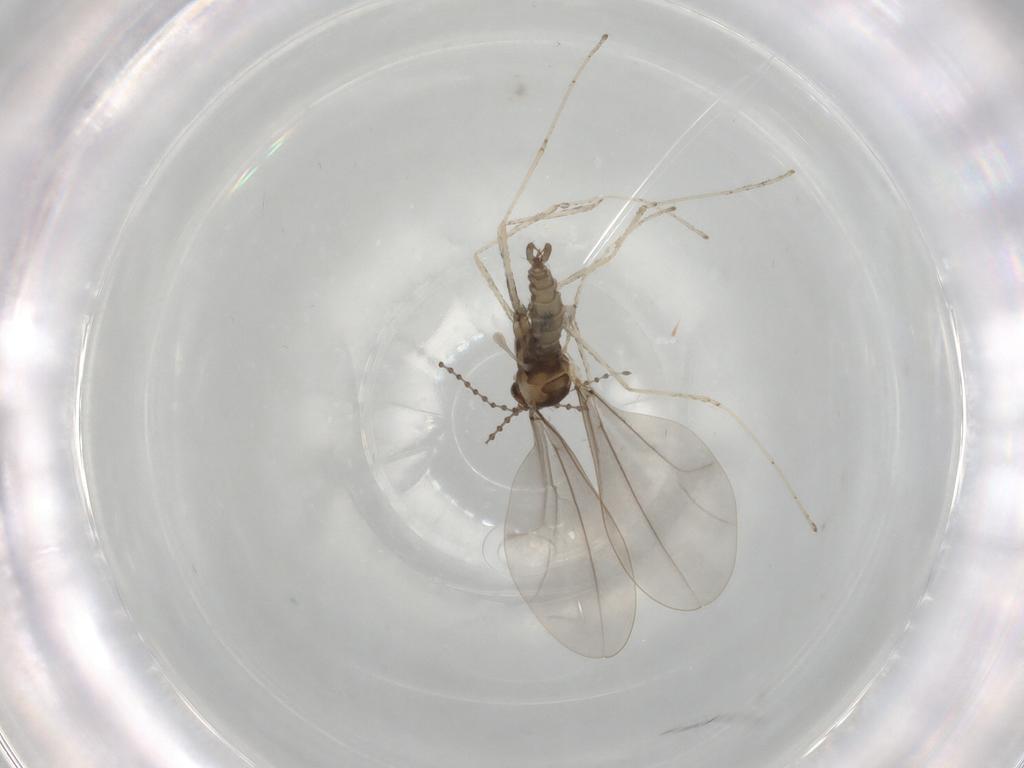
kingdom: Animalia
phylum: Arthropoda
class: Insecta
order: Diptera
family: Cecidomyiidae
